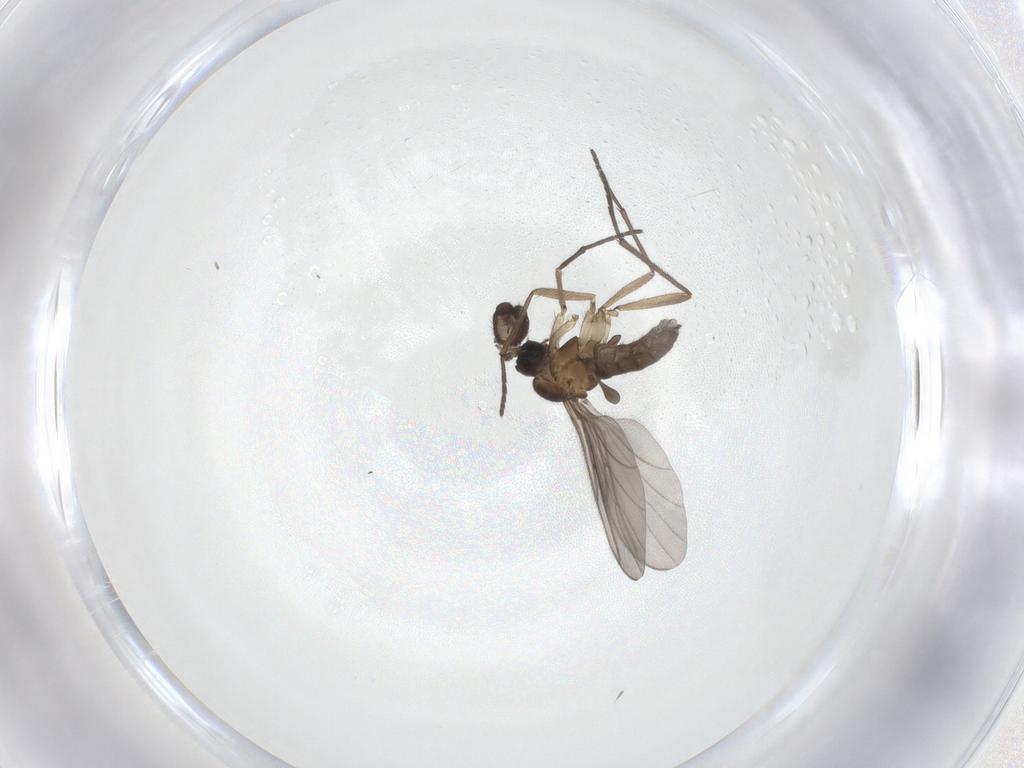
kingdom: Animalia
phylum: Arthropoda
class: Insecta
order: Diptera
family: Sciaridae
